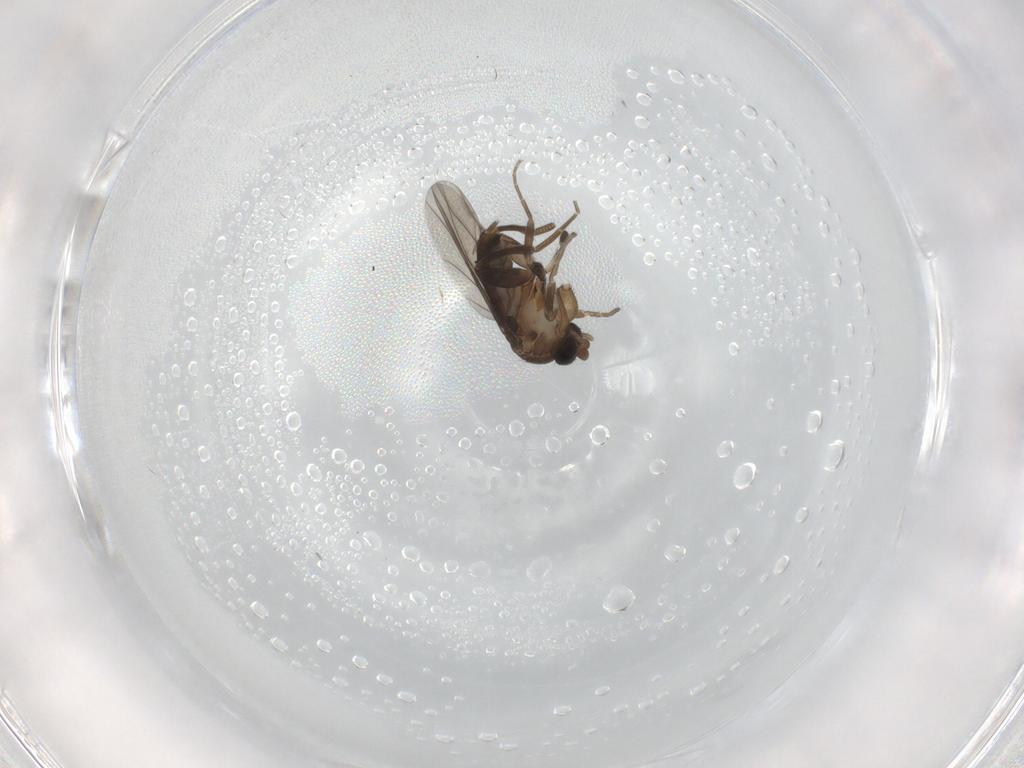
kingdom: Animalia
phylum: Arthropoda
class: Insecta
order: Diptera
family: Phoridae
